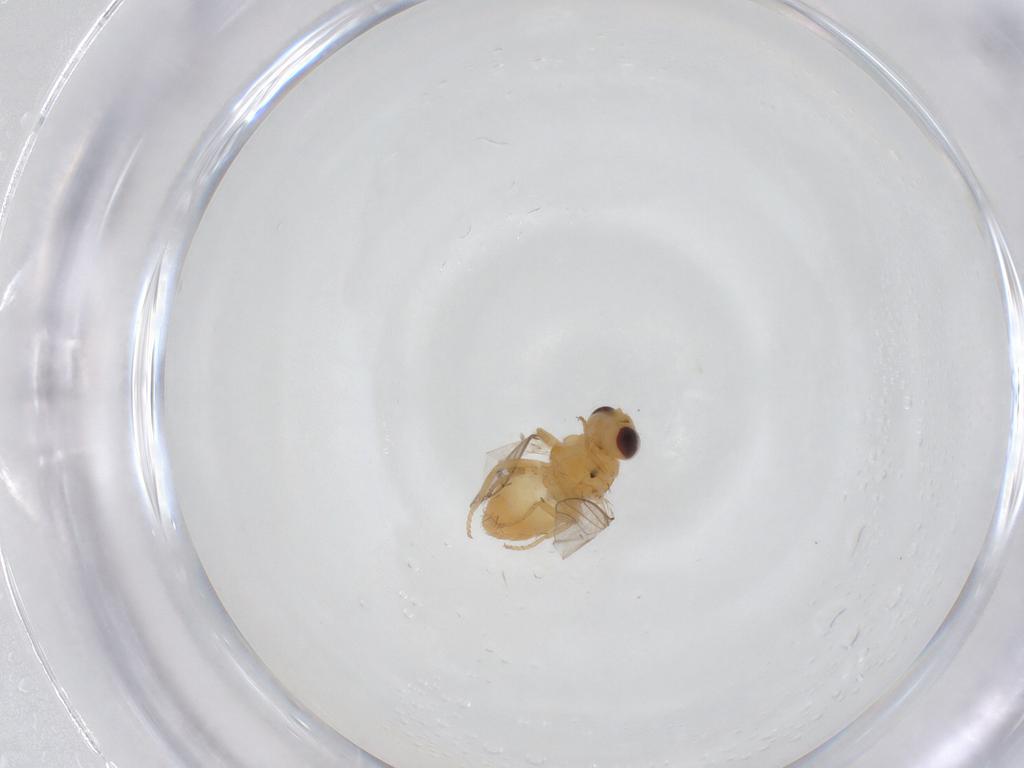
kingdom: Animalia
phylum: Arthropoda
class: Insecta
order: Diptera
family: Chloropidae
